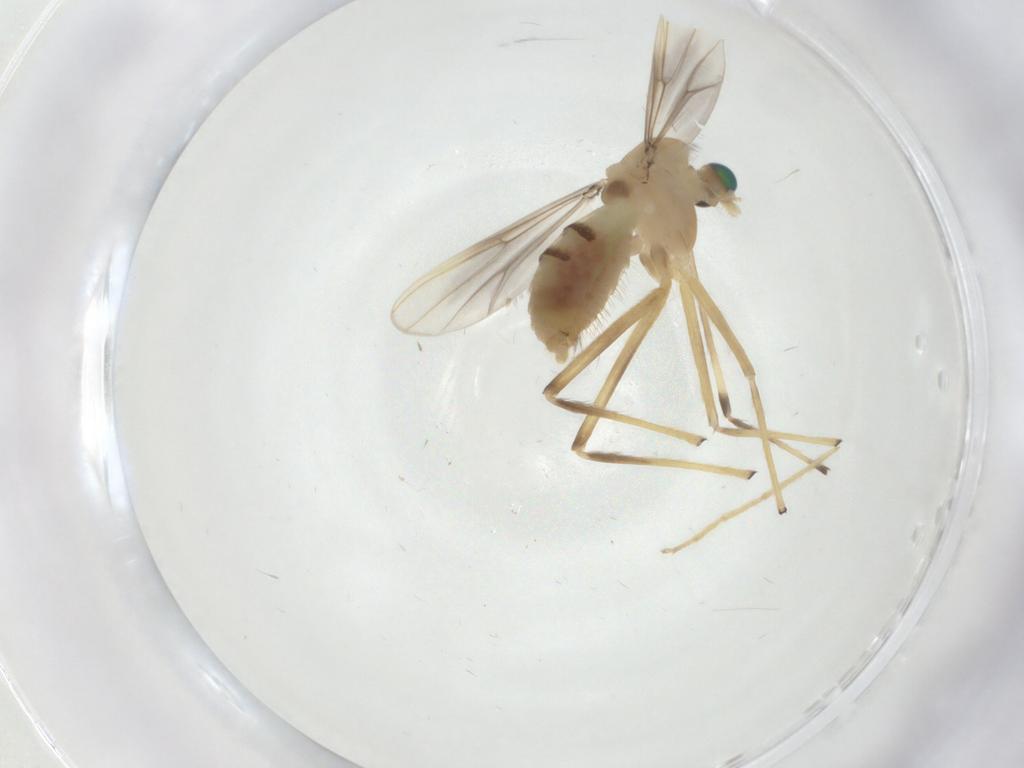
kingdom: Animalia
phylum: Arthropoda
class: Insecta
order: Diptera
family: Chironomidae
